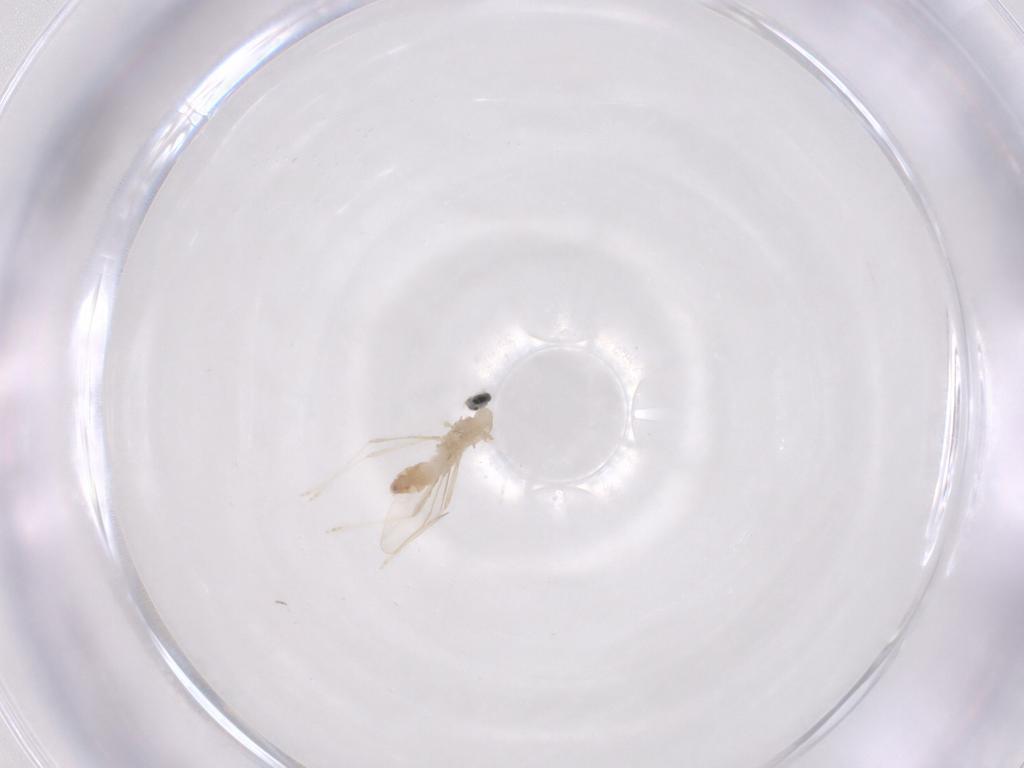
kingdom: Animalia
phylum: Arthropoda
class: Insecta
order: Diptera
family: Cecidomyiidae
